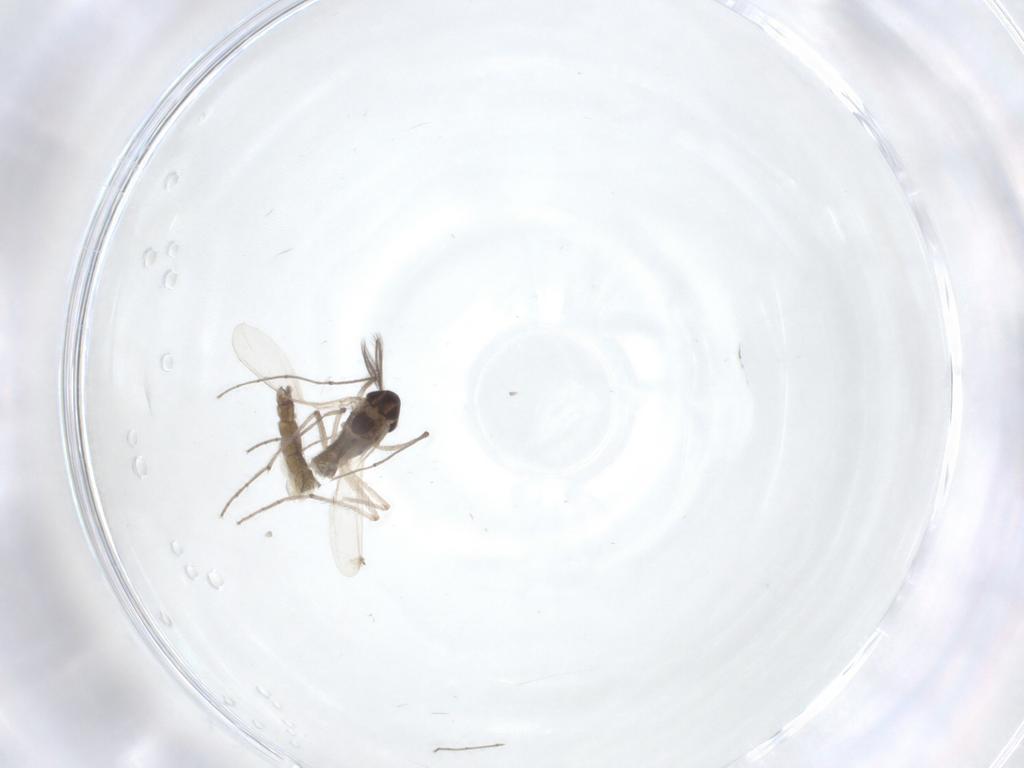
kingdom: Animalia
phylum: Arthropoda
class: Insecta
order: Diptera
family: Chironomidae
